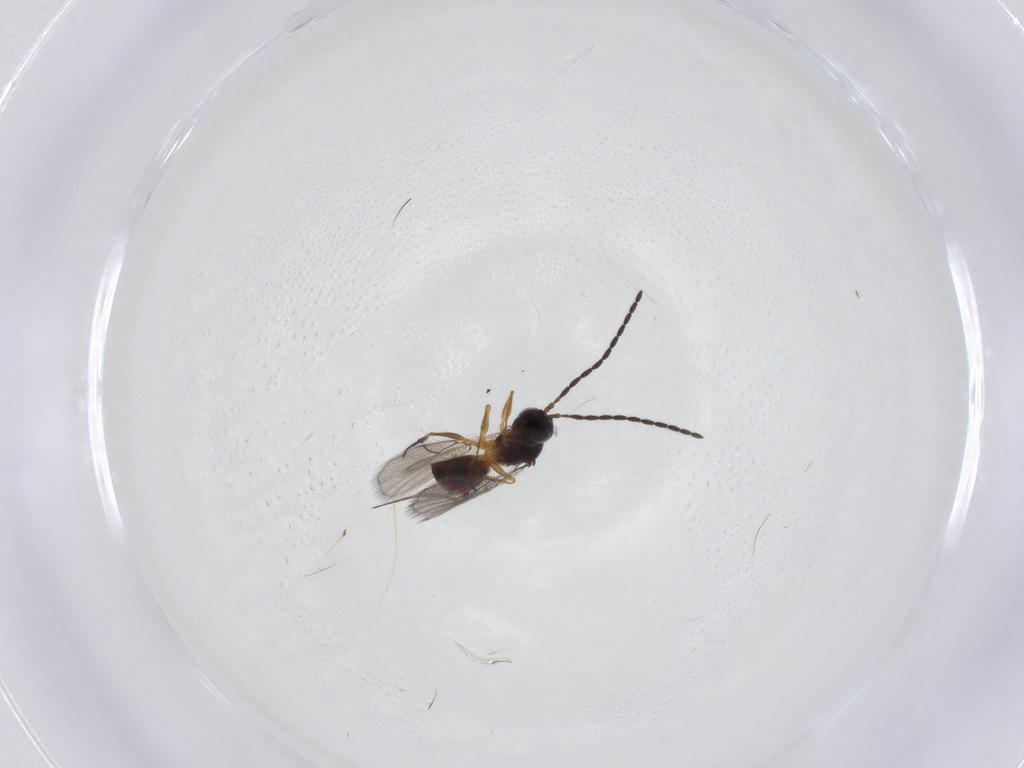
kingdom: Animalia
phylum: Arthropoda
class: Insecta
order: Hymenoptera
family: Figitidae
